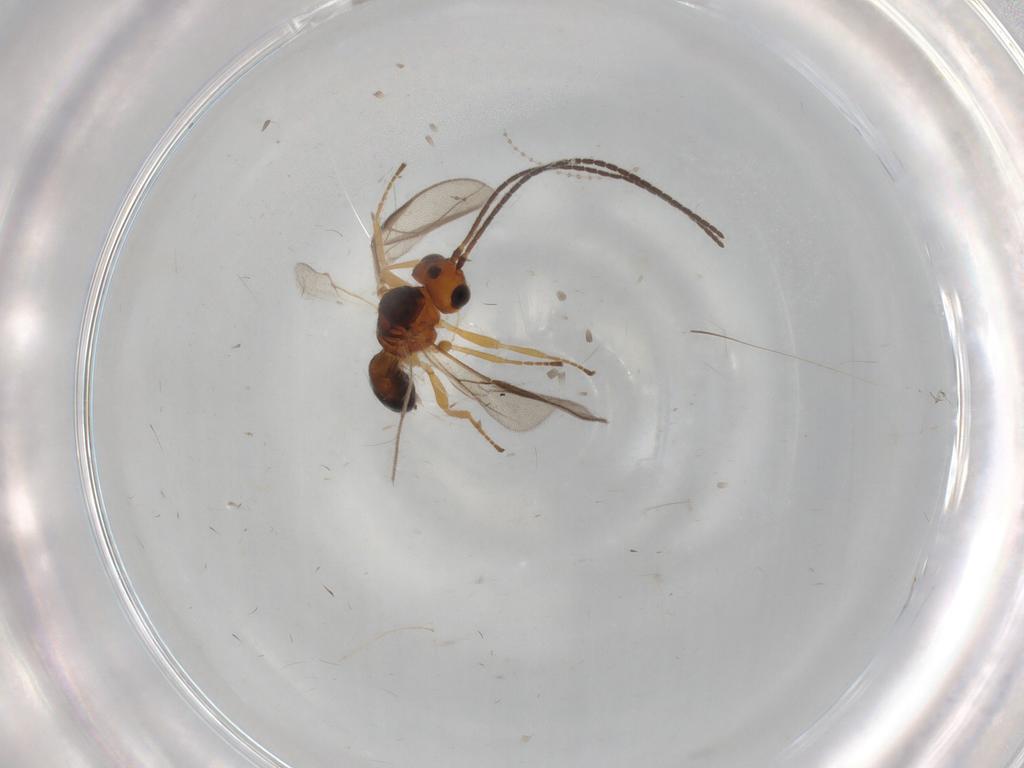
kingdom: Animalia
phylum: Arthropoda
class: Insecta
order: Hymenoptera
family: Braconidae
